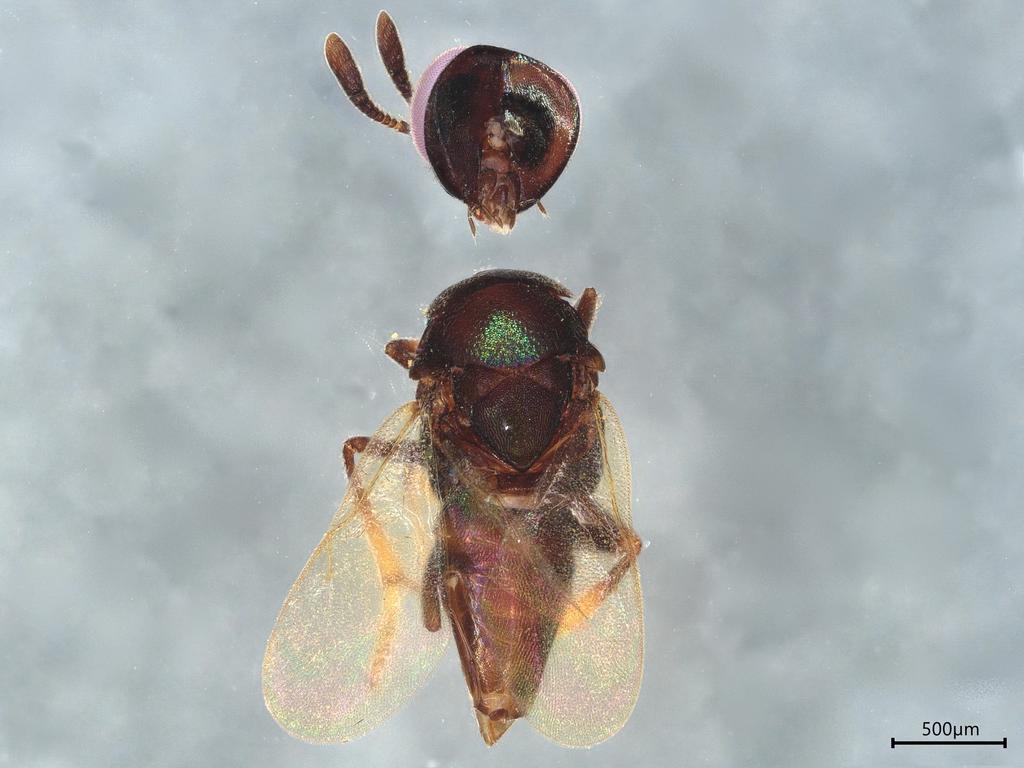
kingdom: Animalia
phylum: Arthropoda
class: Insecta
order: Hymenoptera
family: Encyrtidae
